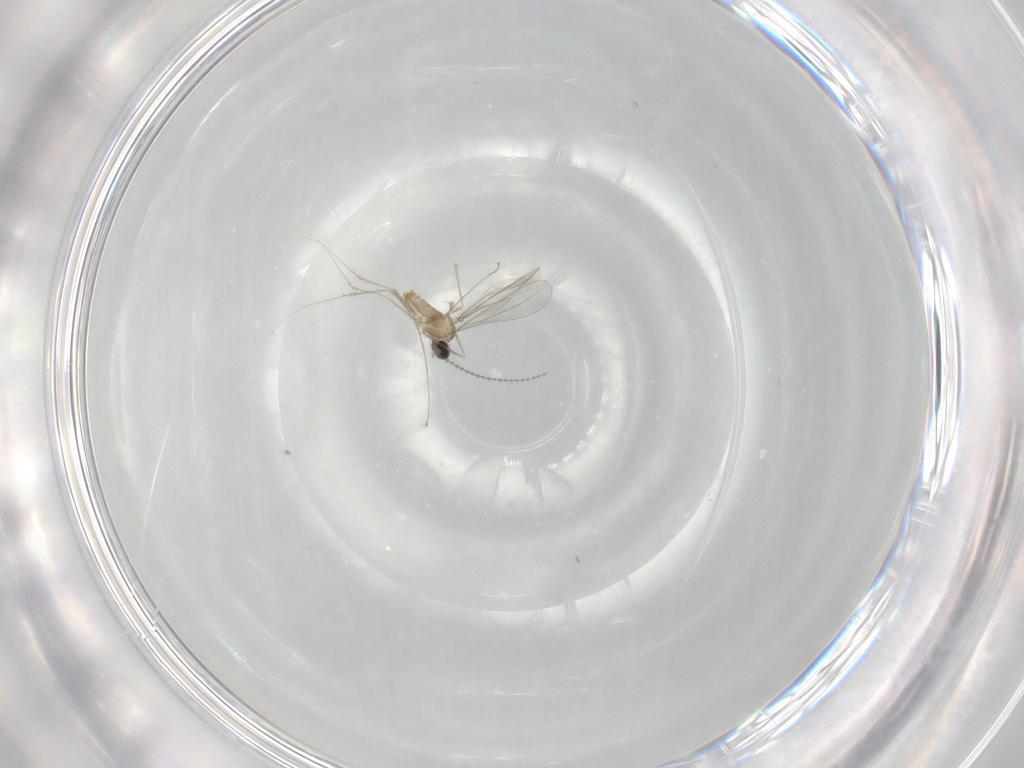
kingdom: Animalia
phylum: Arthropoda
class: Insecta
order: Diptera
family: Cecidomyiidae
